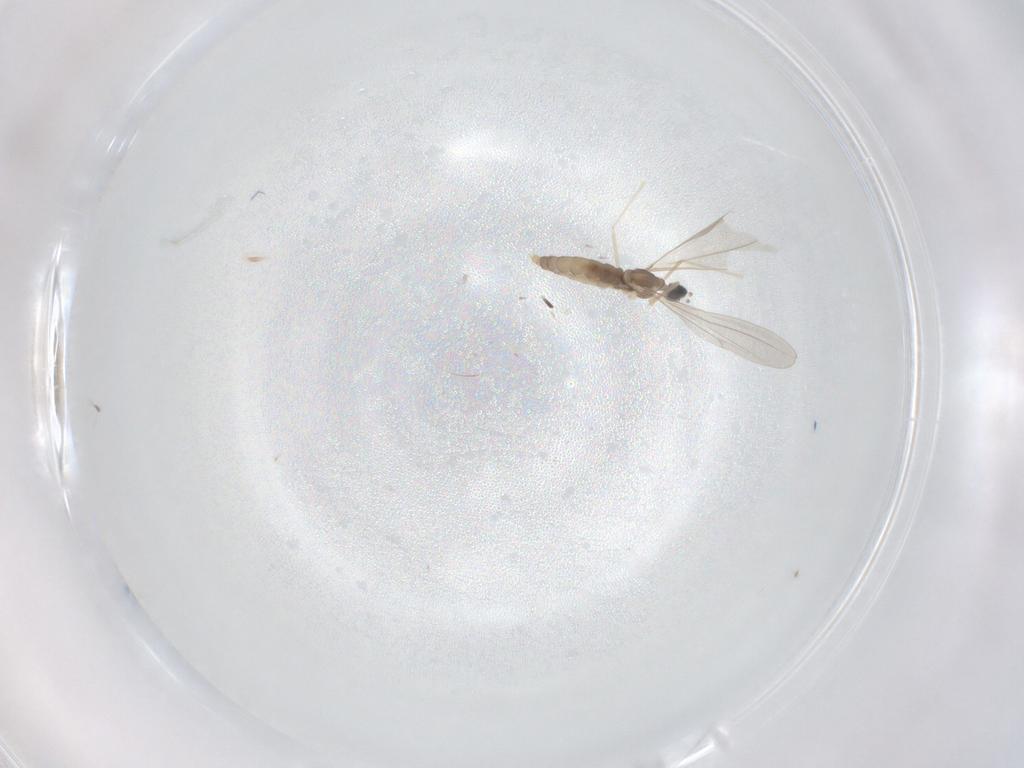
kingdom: Animalia
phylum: Arthropoda
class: Insecta
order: Diptera
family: Cecidomyiidae
